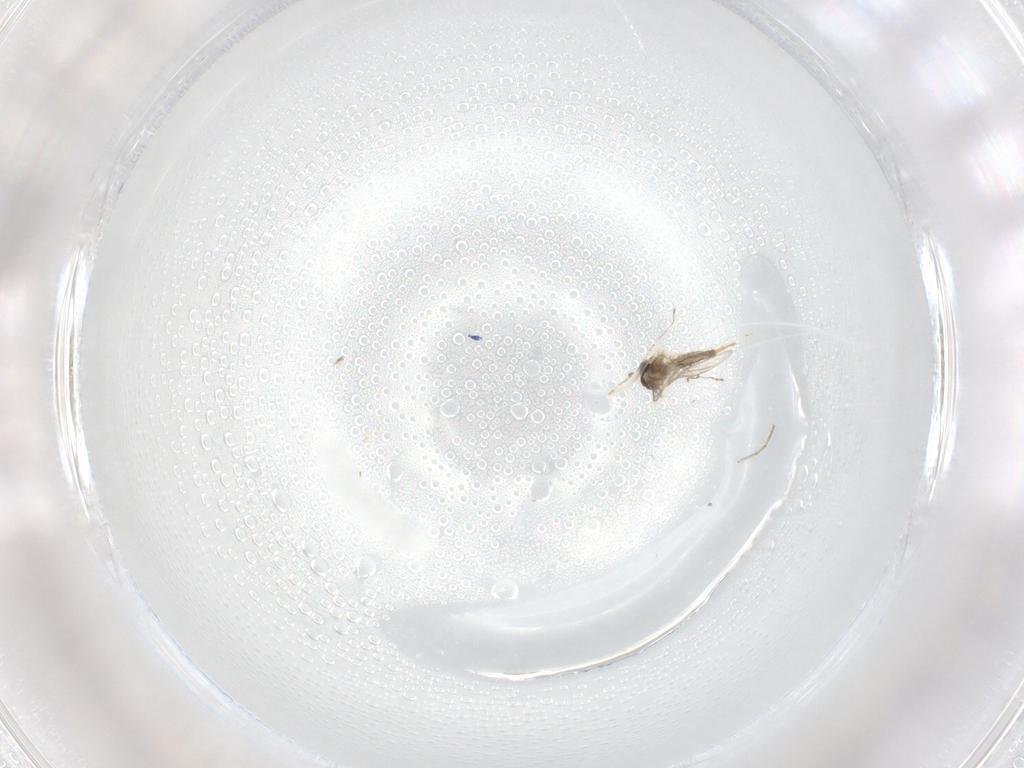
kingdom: Animalia
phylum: Arthropoda
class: Insecta
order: Diptera
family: Cecidomyiidae
